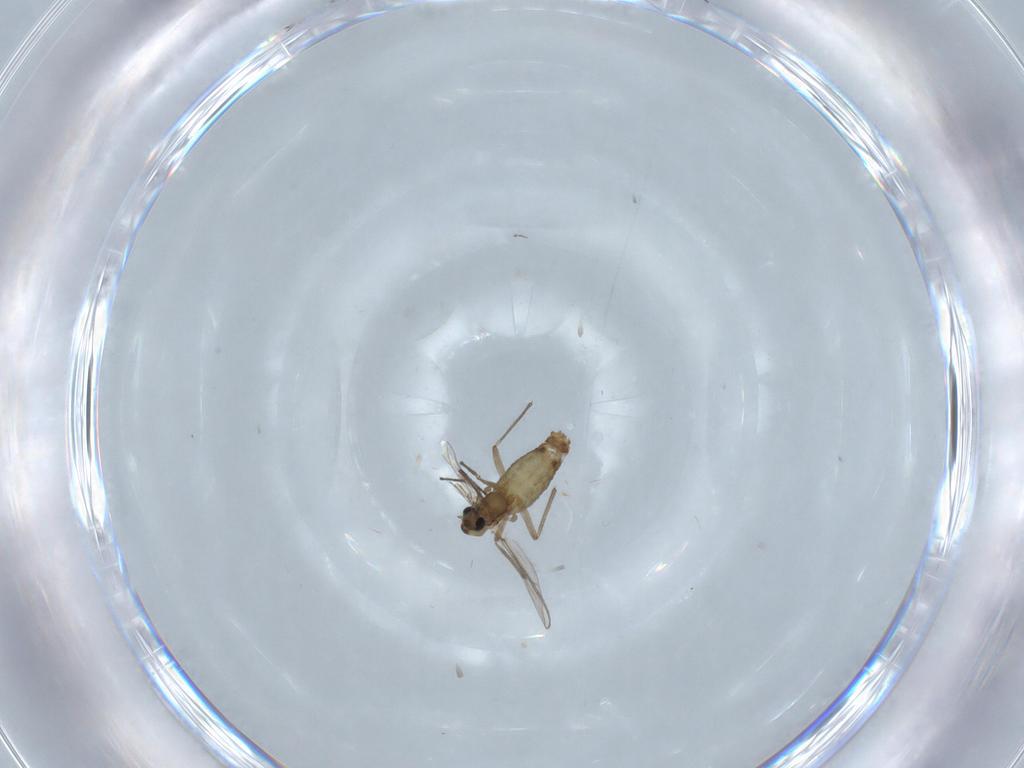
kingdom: Animalia
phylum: Arthropoda
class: Insecta
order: Diptera
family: Chironomidae
